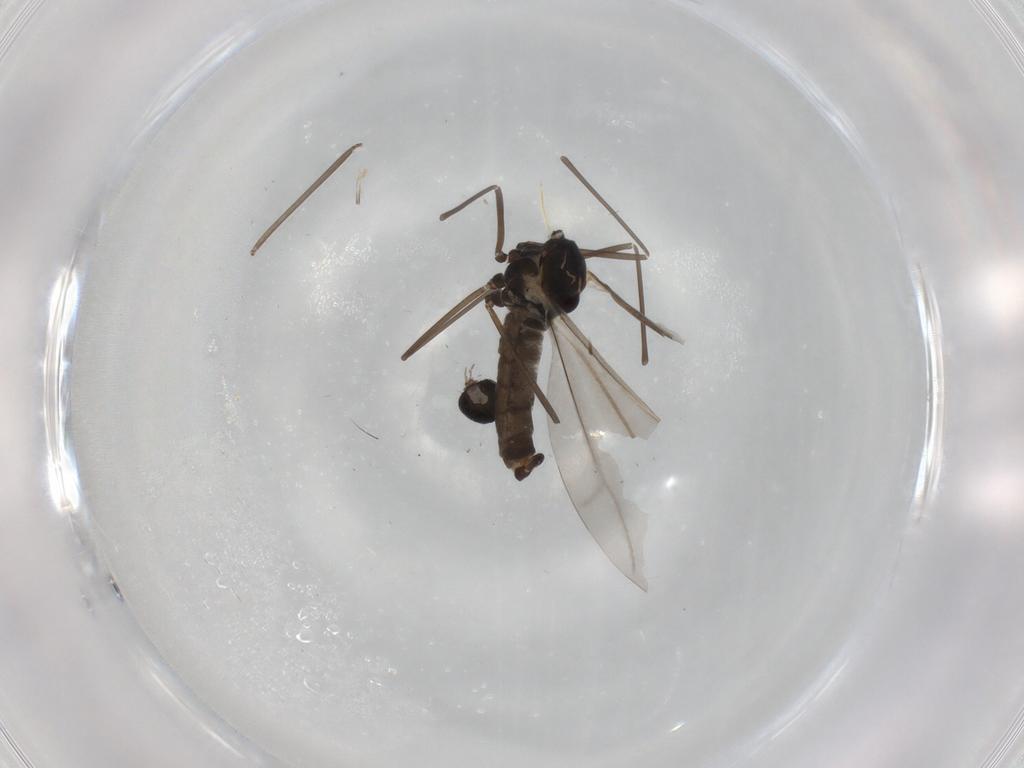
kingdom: Animalia
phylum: Arthropoda
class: Insecta
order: Diptera
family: Cecidomyiidae
